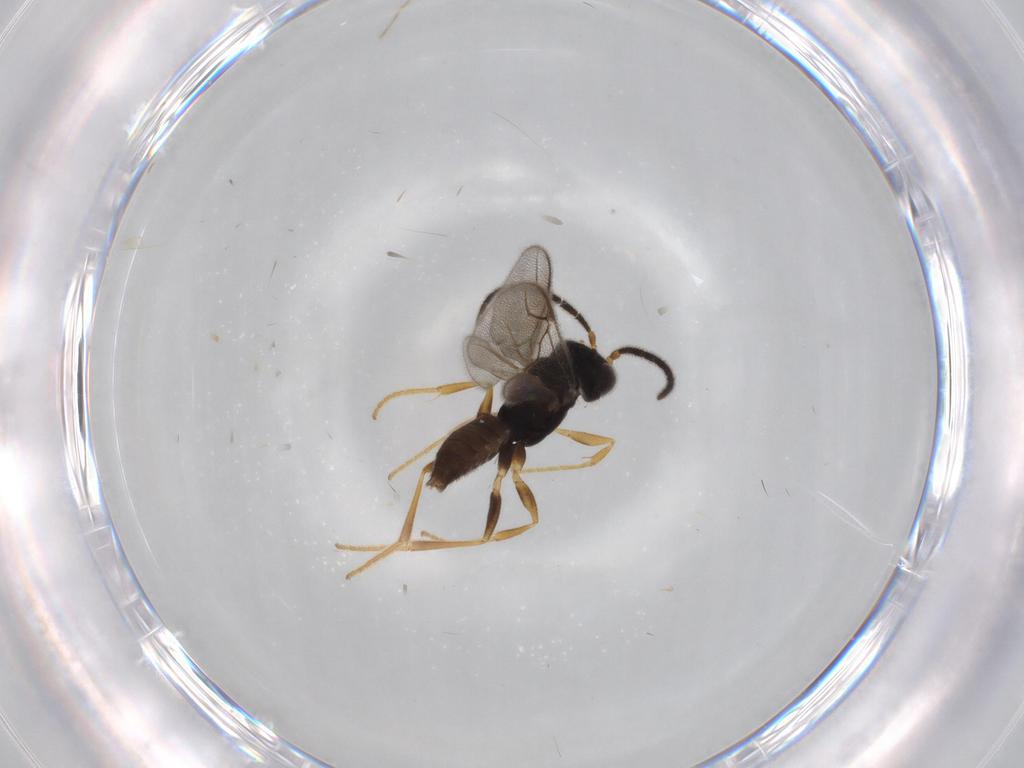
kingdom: Animalia
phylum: Arthropoda
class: Insecta
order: Hymenoptera
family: Dryinidae
